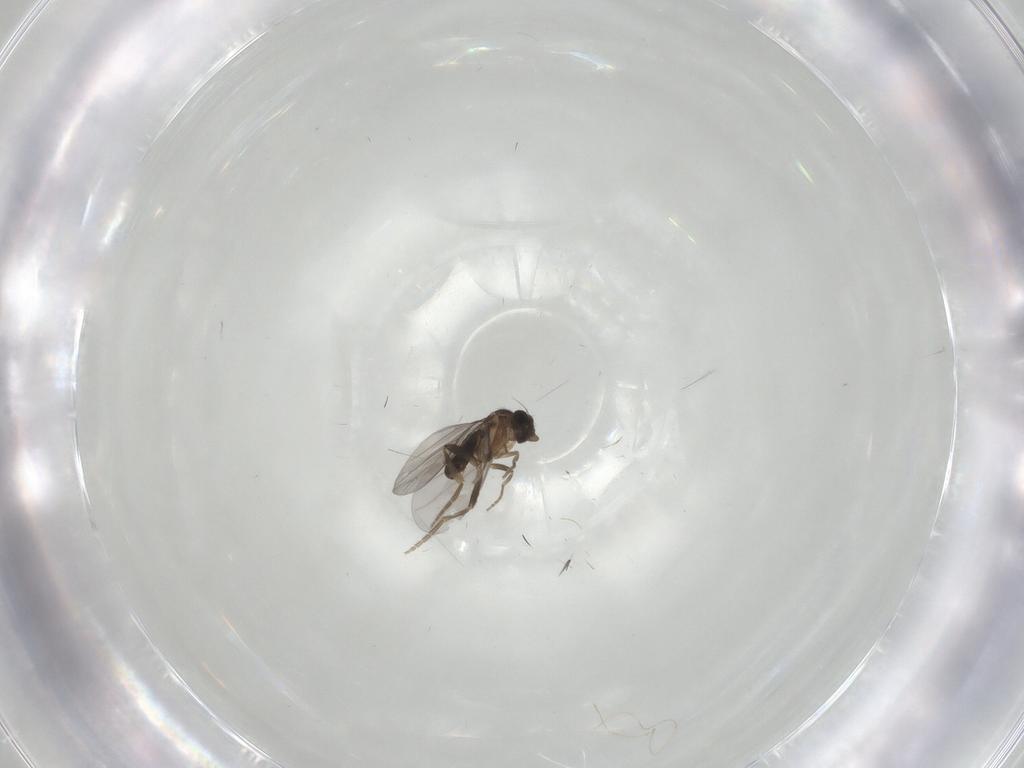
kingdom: Animalia
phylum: Arthropoda
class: Insecta
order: Diptera
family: Psychodidae
